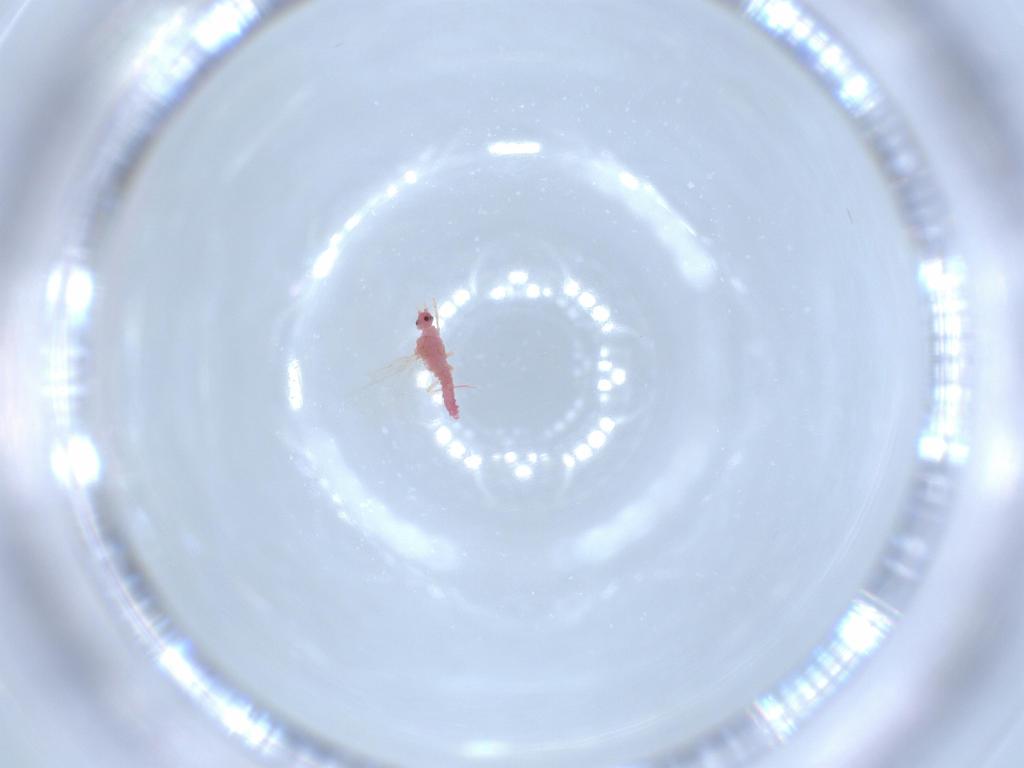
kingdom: Animalia
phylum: Arthropoda
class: Insecta
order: Hemiptera
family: Pseudococcidae
